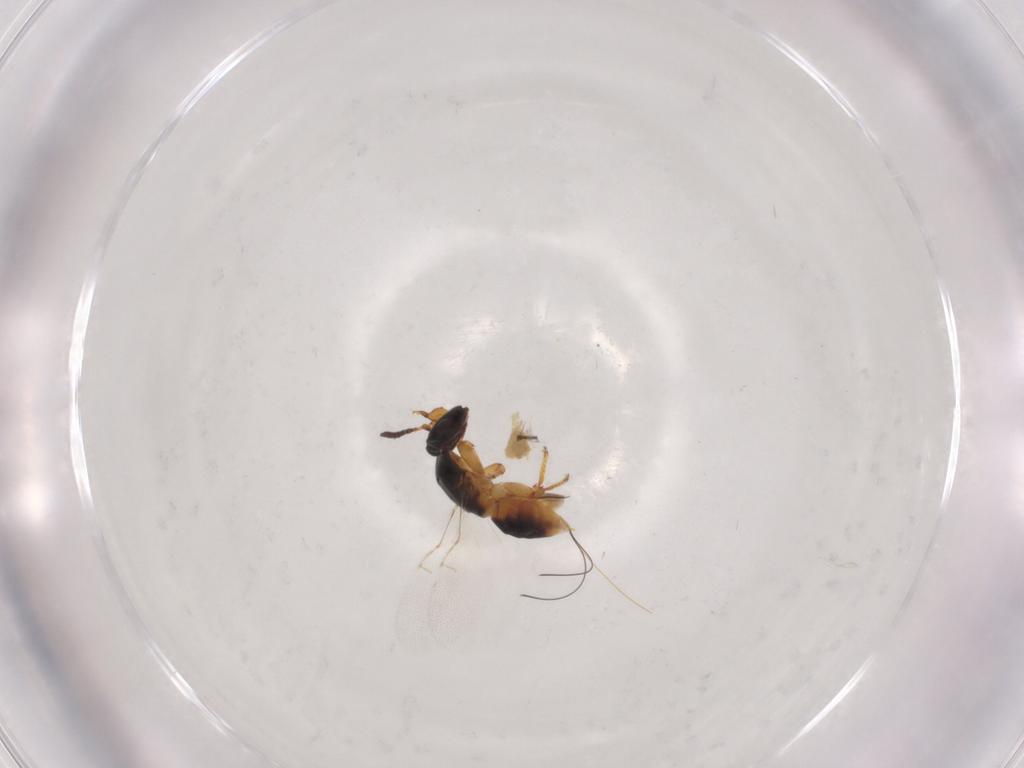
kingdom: Animalia
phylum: Arthropoda
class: Insecta
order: Hymenoptera
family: Agaonidae
